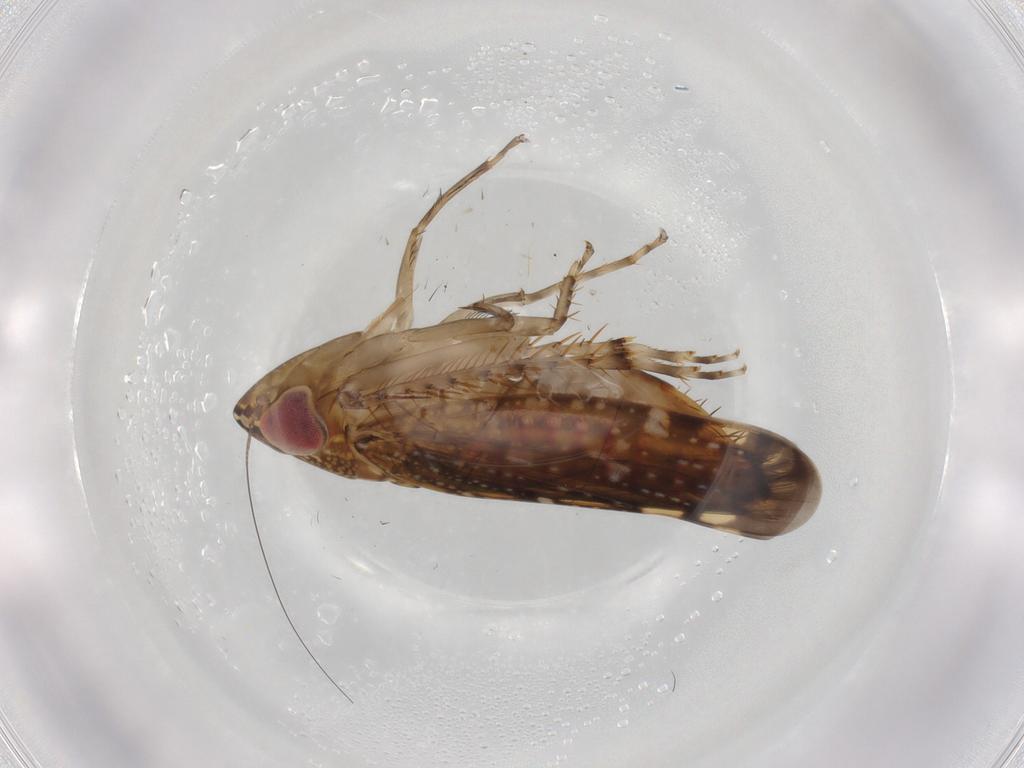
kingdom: Animalia
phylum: Arthropoda
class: Insecta
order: Hemiptera
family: Cicadellidae
